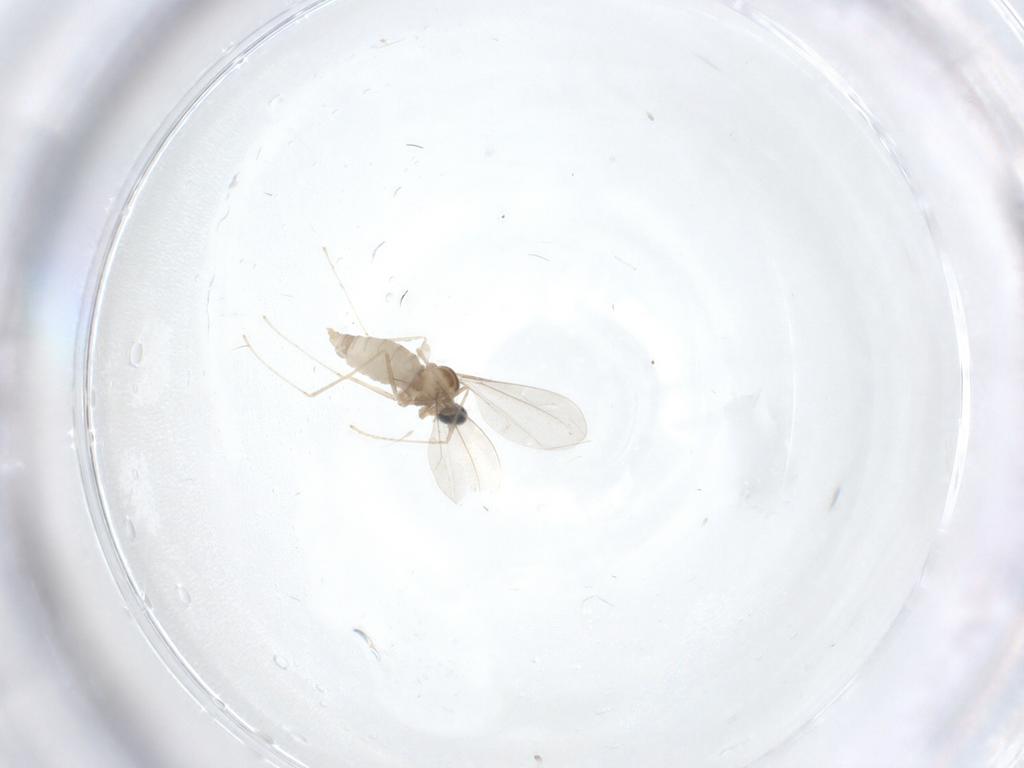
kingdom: Animalia
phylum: Arthropoda
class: Insecta
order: Diptera
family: Cecidomyiidae
